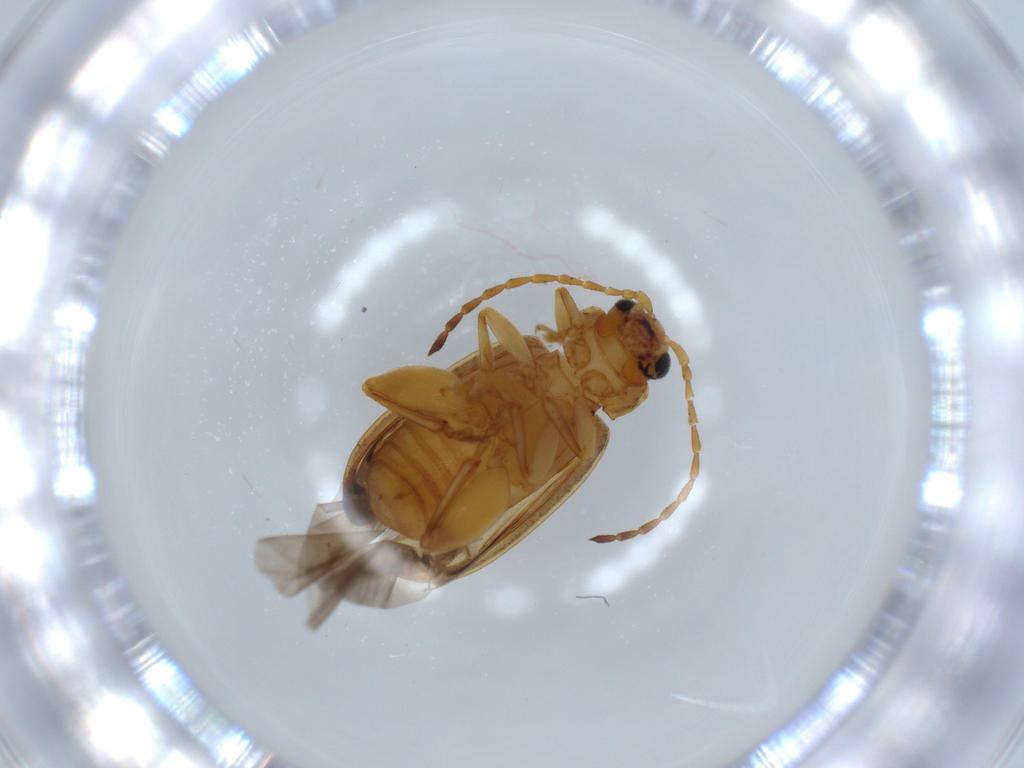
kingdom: Animalia
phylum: Arthropoda
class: Insecta
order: Coleoptera
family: Chrysomelidae
